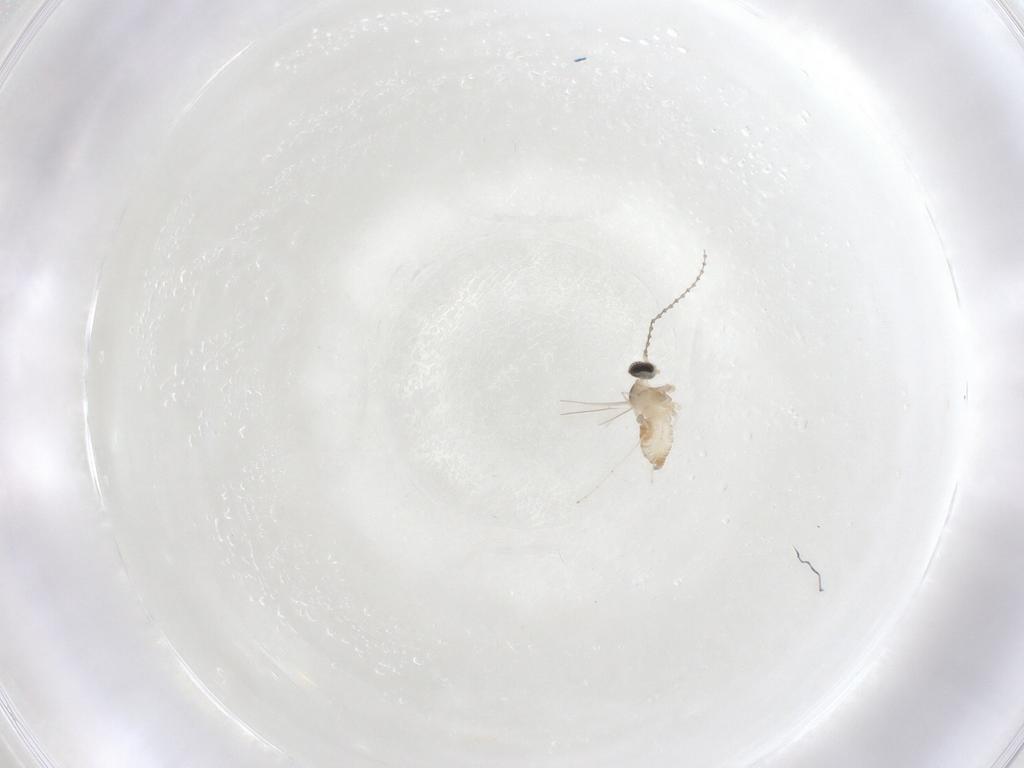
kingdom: Animalia
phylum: Arthropoda
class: Insecta
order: Diptera
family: Cecidomyiidae
